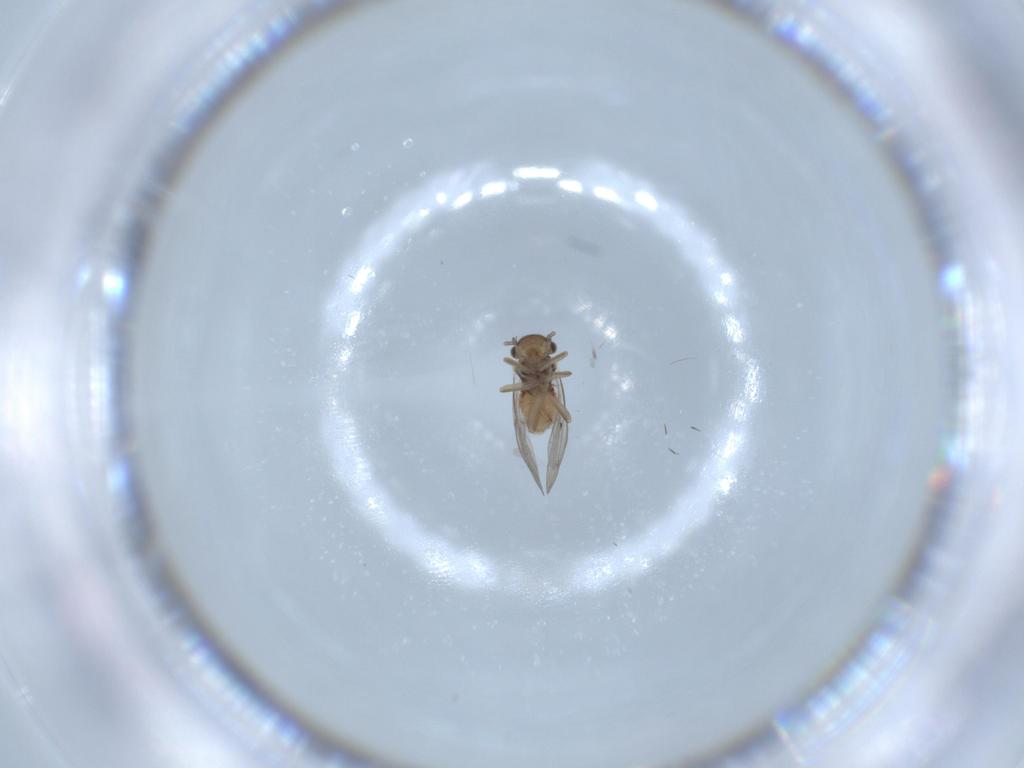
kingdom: Animalia
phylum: Arthropoda
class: Insecta
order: Psocodea
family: Peripsocidae
